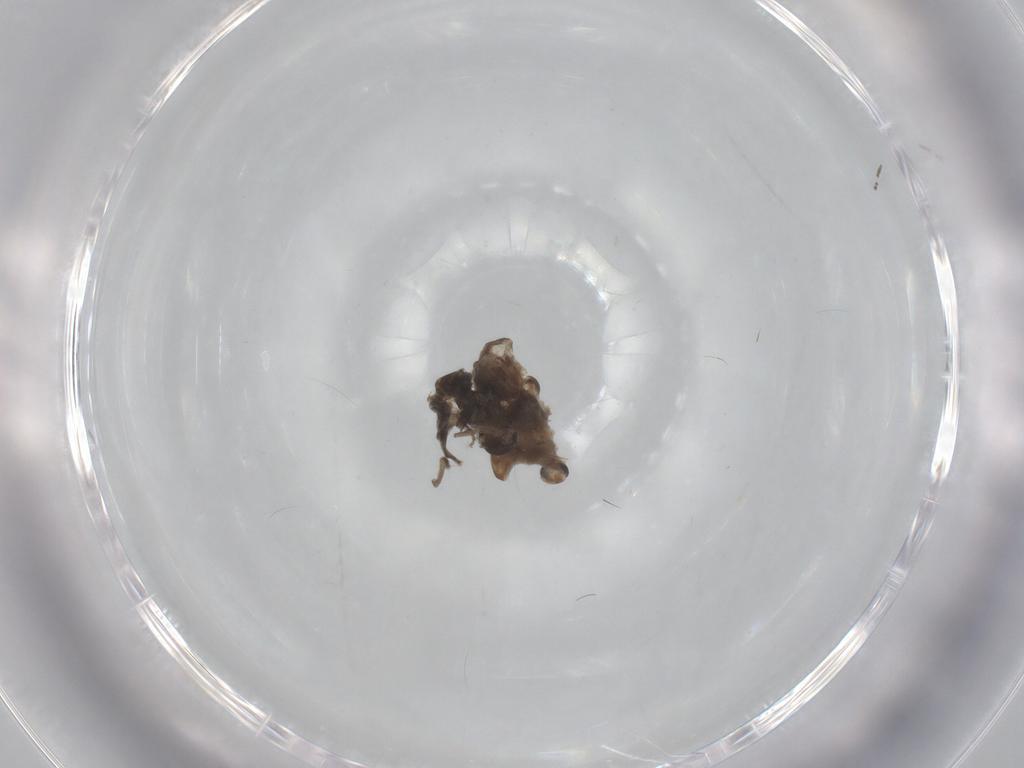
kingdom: Animalia
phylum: Arthropoda
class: Insecta
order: Diptera
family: Chironomidae
